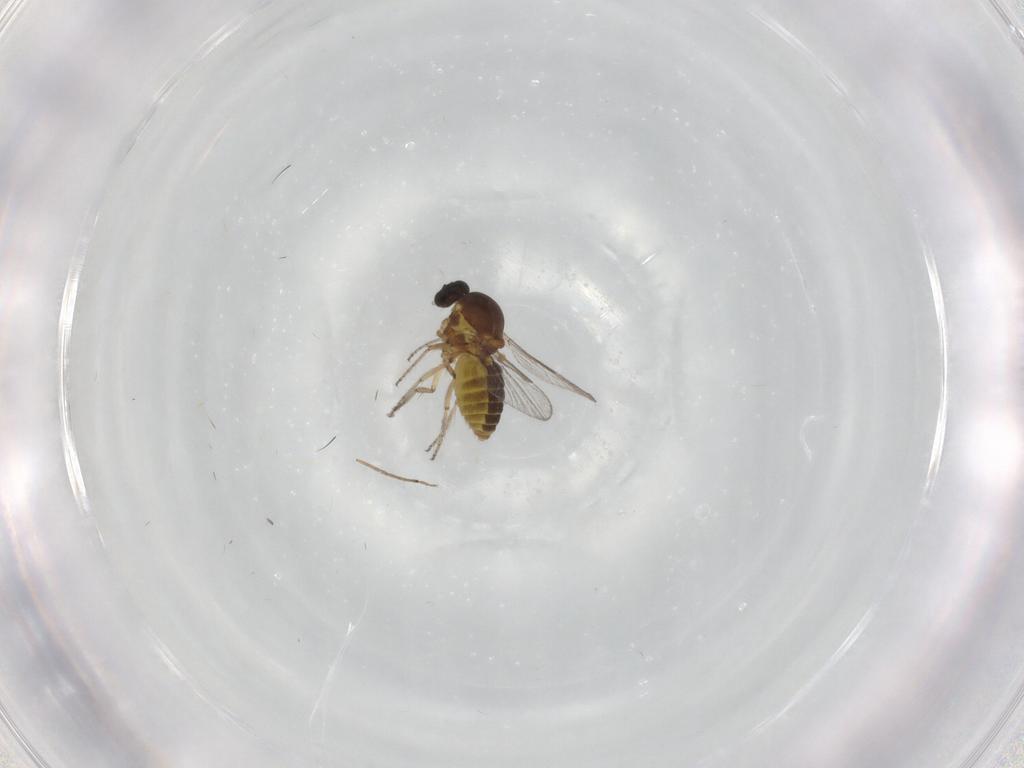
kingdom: Animalia
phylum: Arthropoda
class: Insecta
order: Diptera
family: Ceratopogonidae
